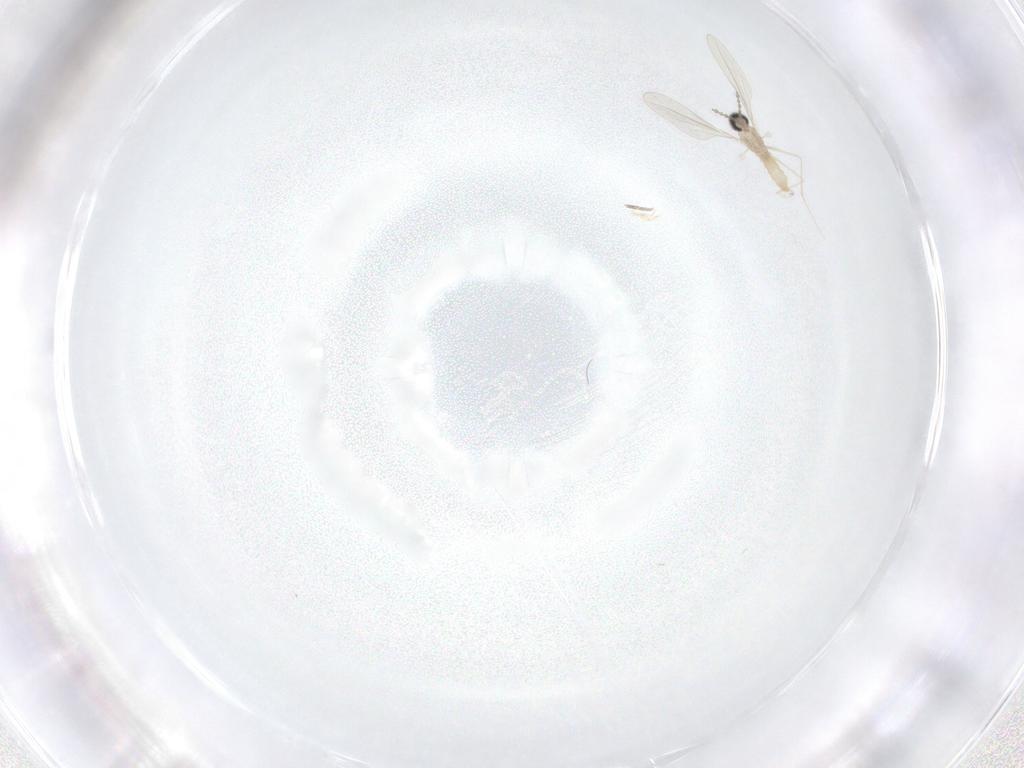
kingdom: Animalia
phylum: Arthropoda
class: Insecta
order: Diptera
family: Cecidomyiidae
